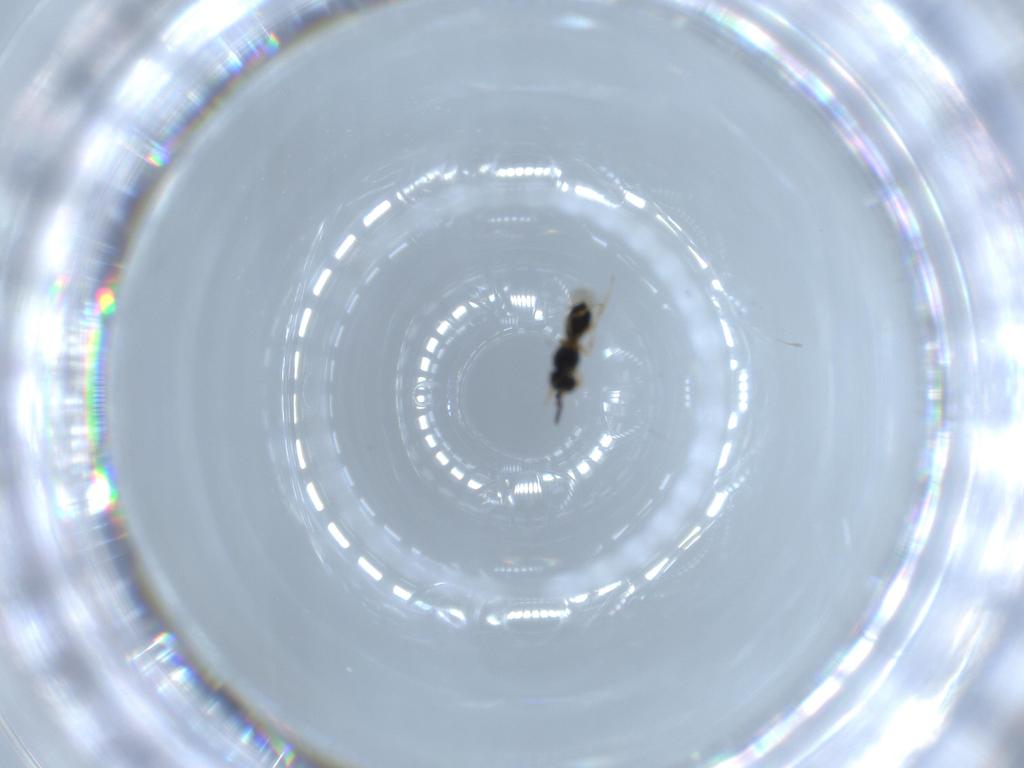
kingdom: Animalia
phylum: Arthropoda
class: Insecta
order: Hymenoptera
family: Scelionidae
